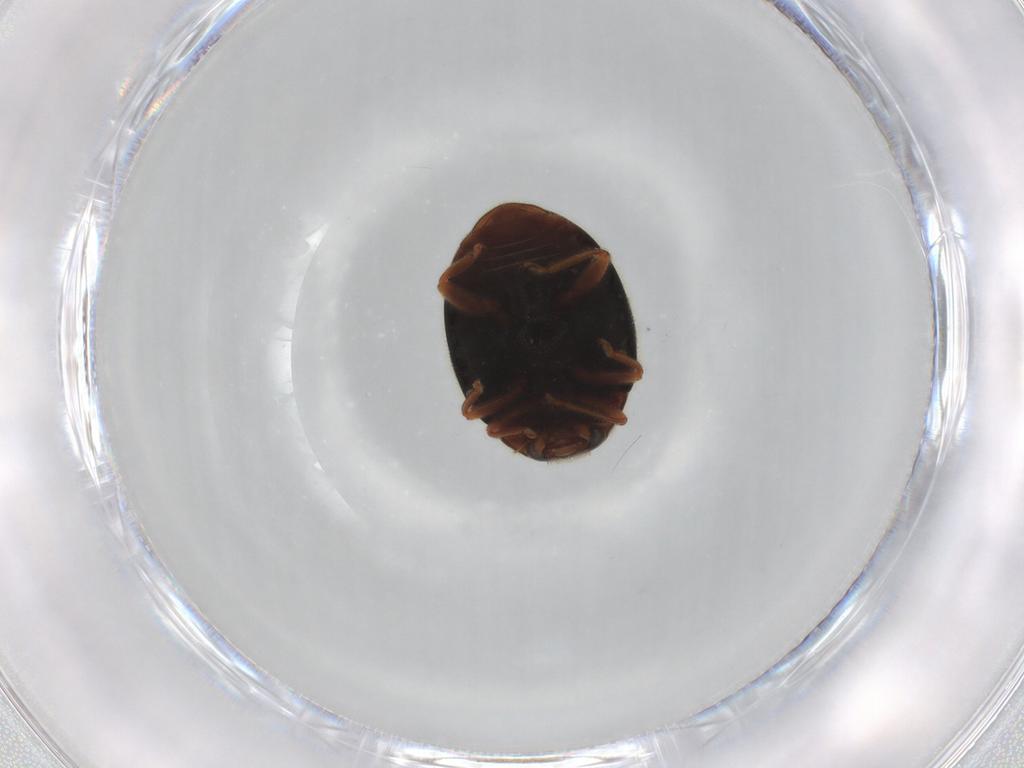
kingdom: Animalia
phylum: Arthropoda
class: Insecta
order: Coleoptera
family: Coccinellidae
